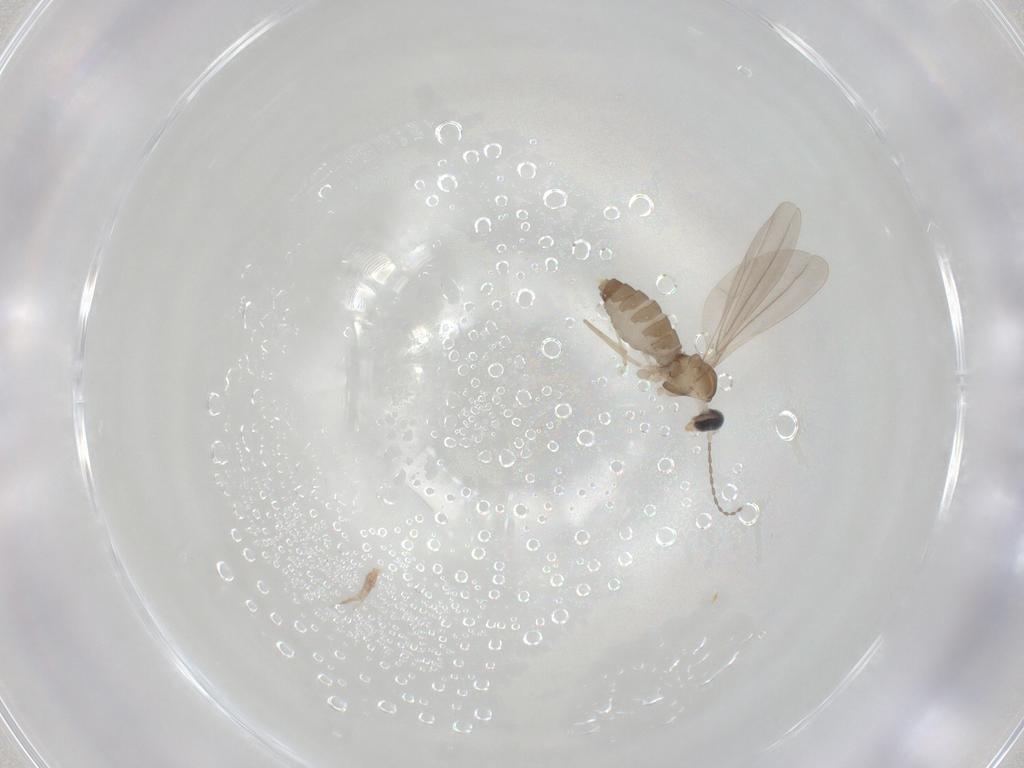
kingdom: Animalia
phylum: Arthropoda
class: Insecta
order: Diptera
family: Cecidomyiidae
